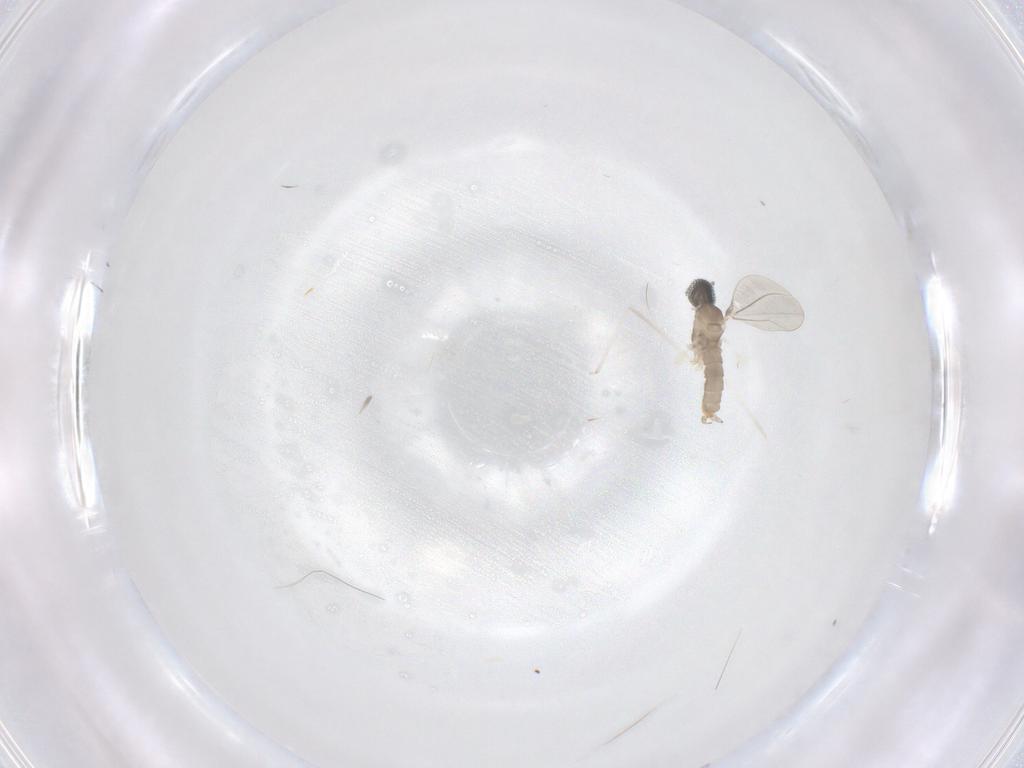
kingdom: Animalia
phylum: Arthropoda
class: Insecta
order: Diptera
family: Cecidomyiidae
